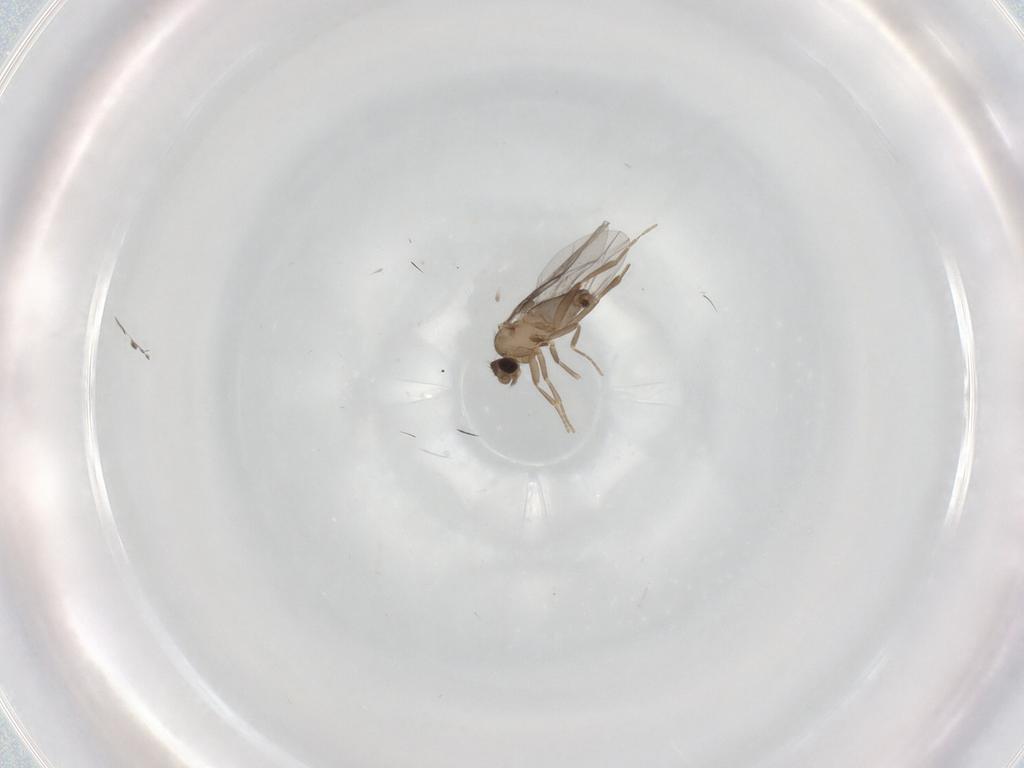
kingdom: Animalia
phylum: Arthropoda
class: Insecta
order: Diptera
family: Cecidomyiidae
